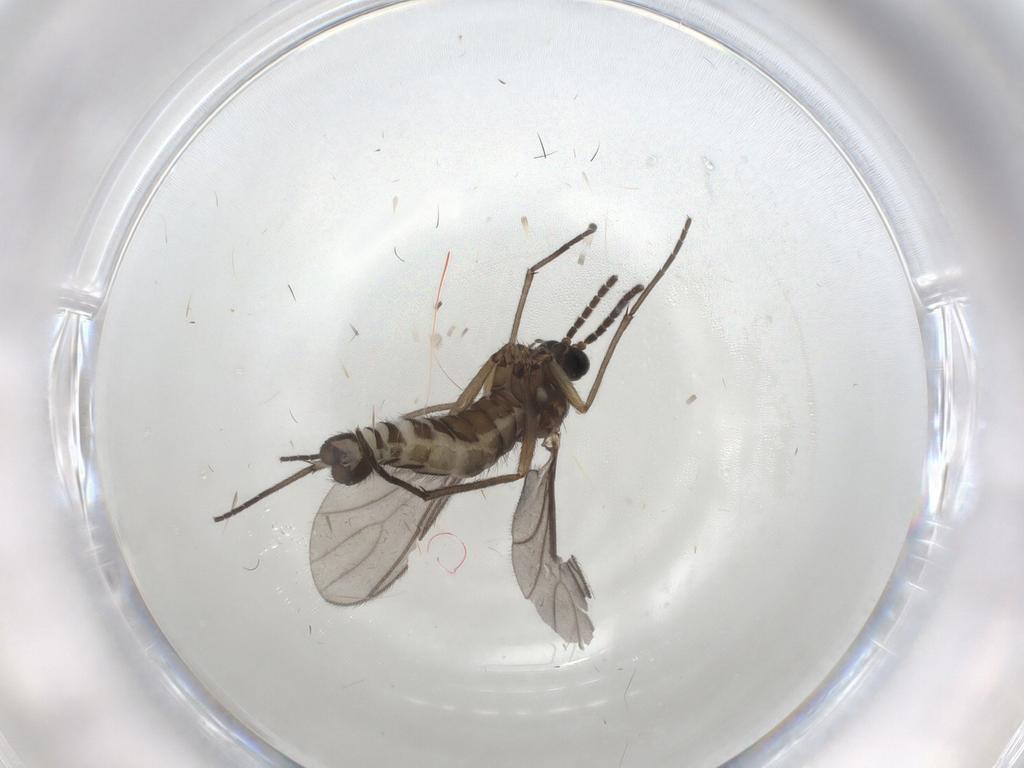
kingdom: Animalia
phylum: Arthropoda
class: Insecta
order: Diptera
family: Sciaridae
